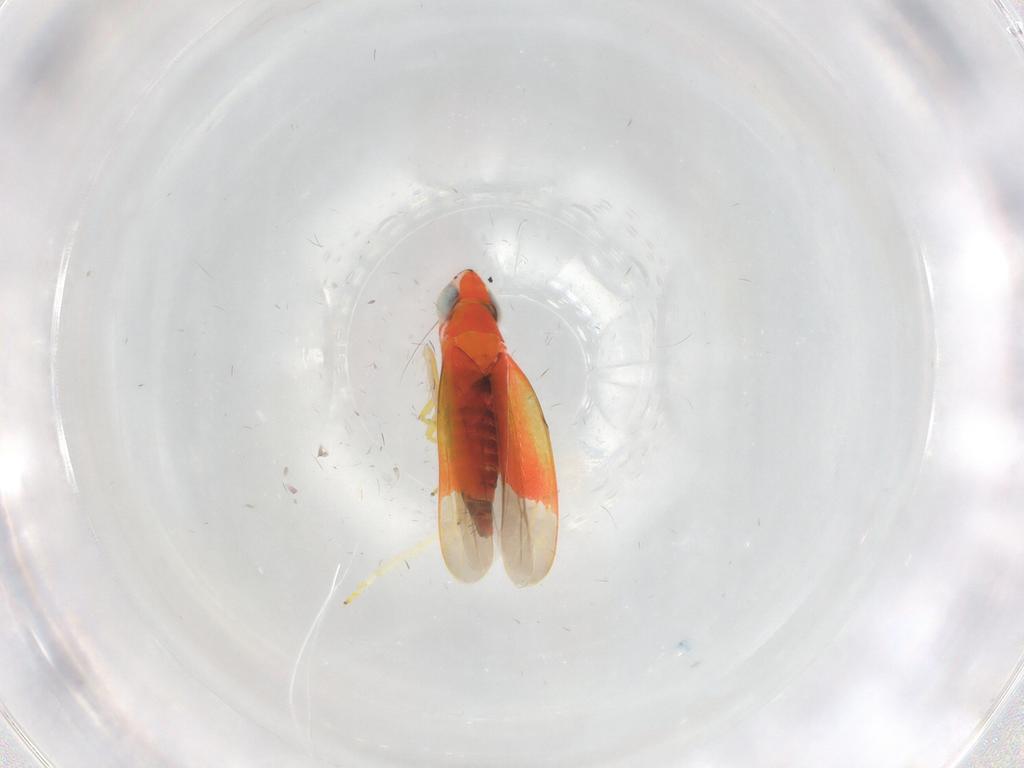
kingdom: Animalia
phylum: Arthropoda
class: Insecta
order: Hemiptera
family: Cicadellidae
